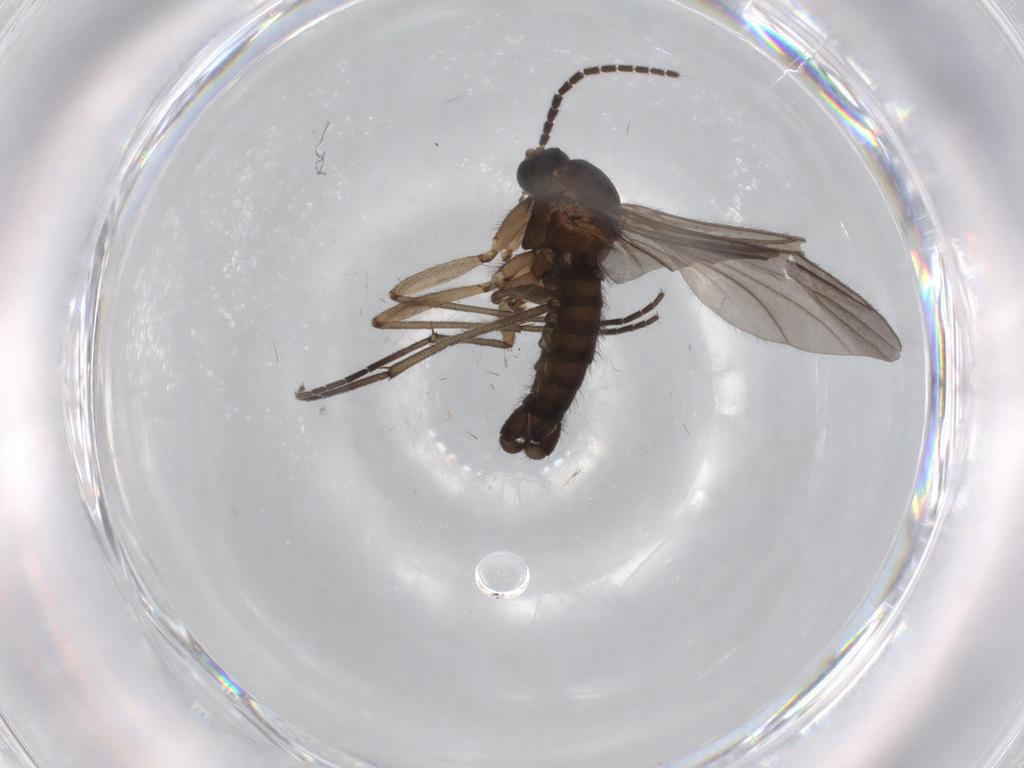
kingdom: Animalia
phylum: Arthropoda
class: Insecta
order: Diptera
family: Sciaridae
